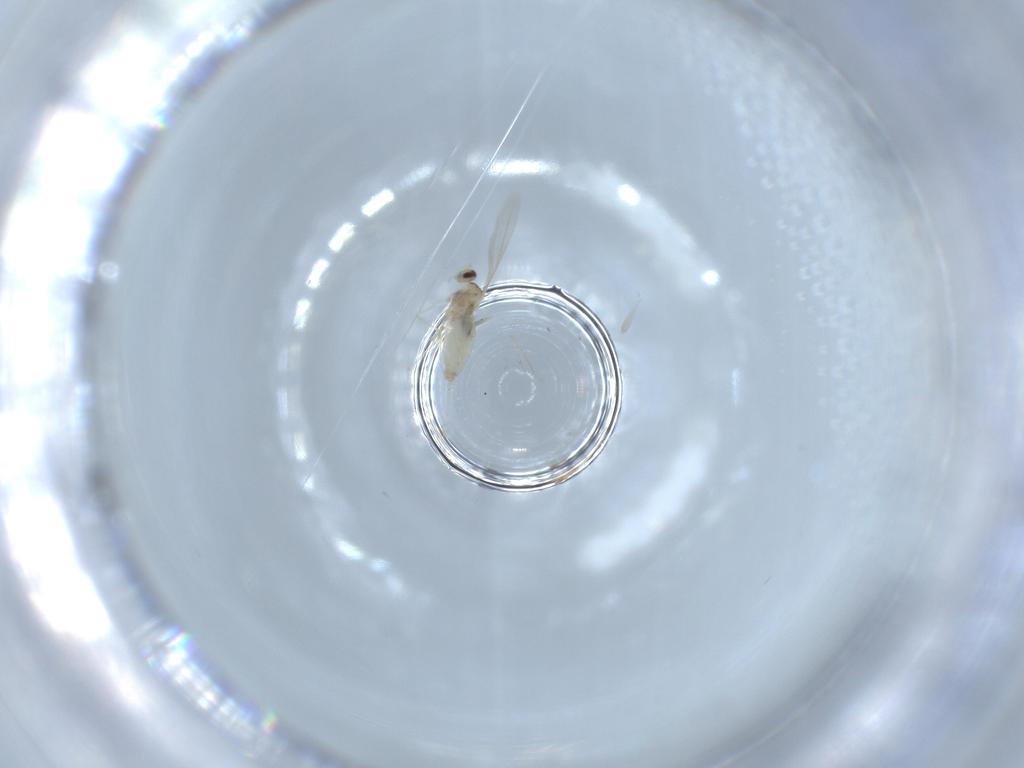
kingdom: Animalia
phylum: Arthropoda
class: Insecta
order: Diptera
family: Cecidomyiidae
